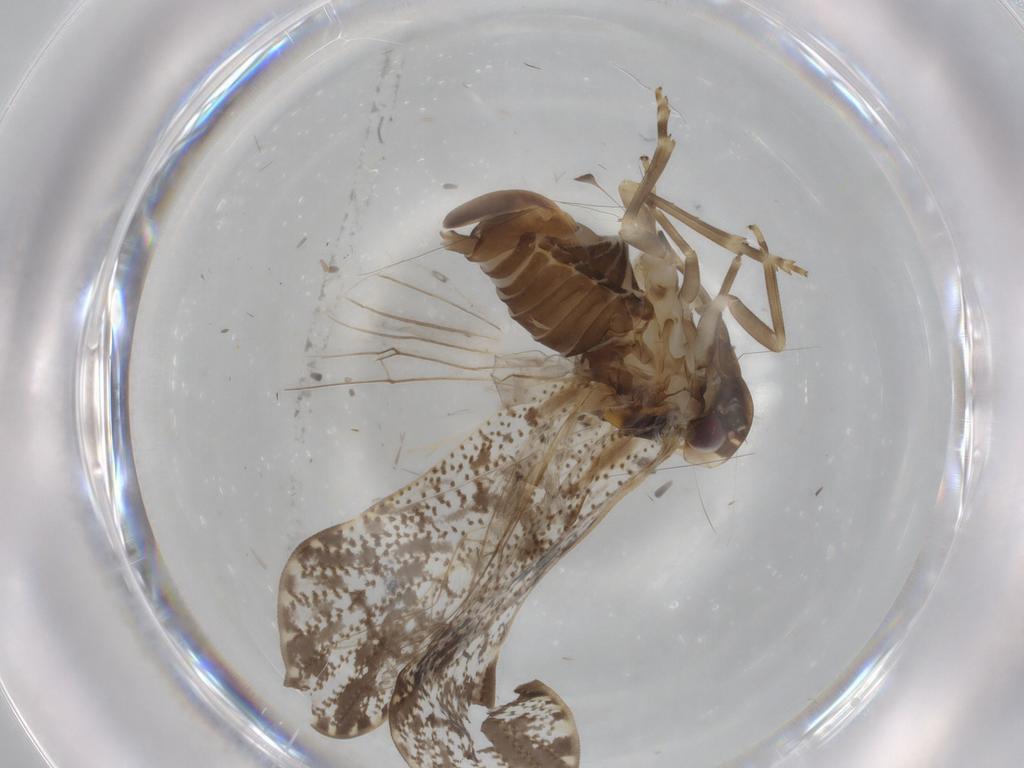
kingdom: Animalia
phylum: Arthropoda
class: Insecta
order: Hemiptera
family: Cixiidae
